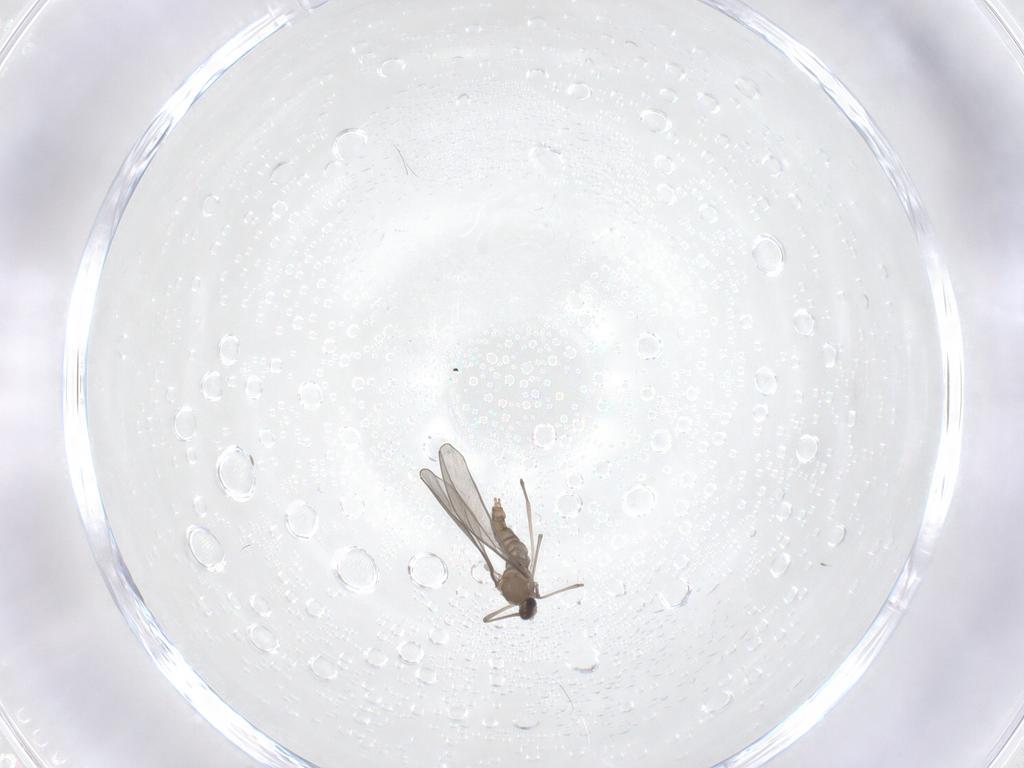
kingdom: Animalia
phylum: Arthropoda
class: Insecta
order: Diptera
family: Cecidomyiidae
